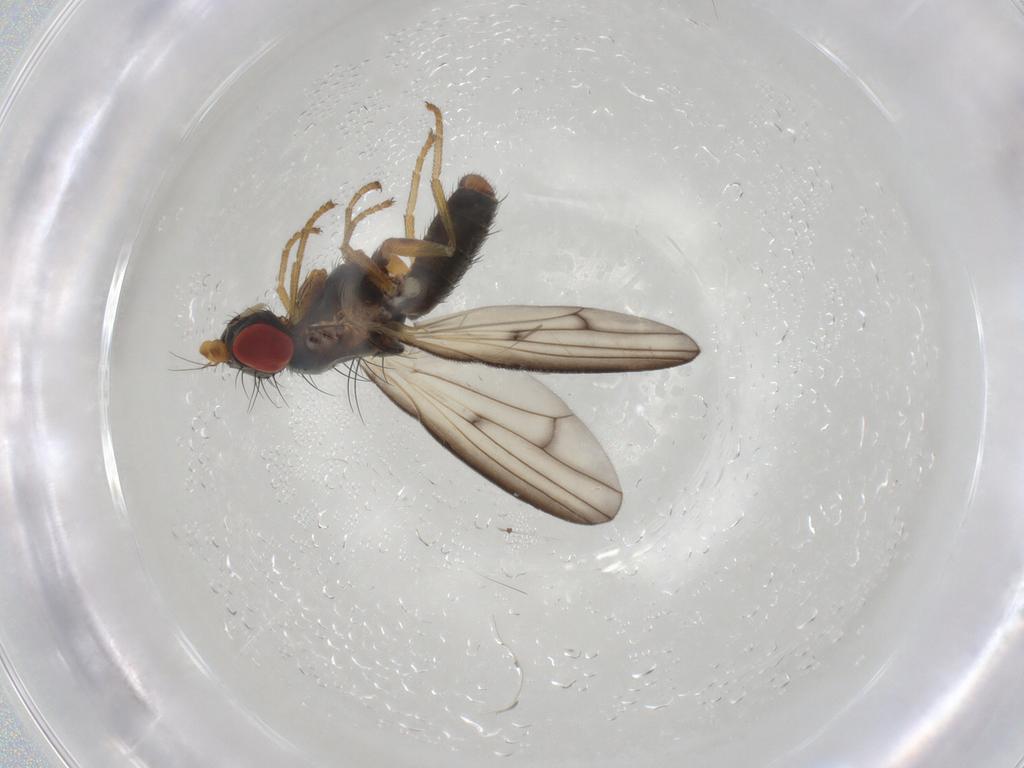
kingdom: Animalia
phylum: Arthropoda
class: Insecta
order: Diptera
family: Chamaemyiidae
